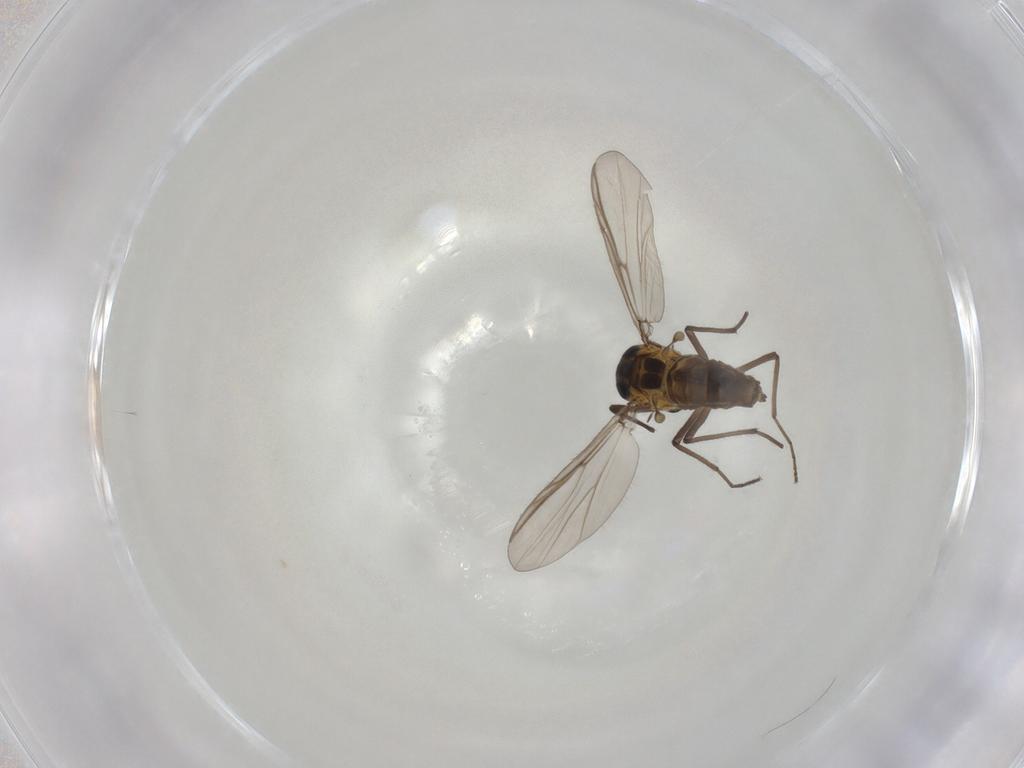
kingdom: Animalia
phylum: Arthropoda
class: Insecta
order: Diptera
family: Chironomidae
